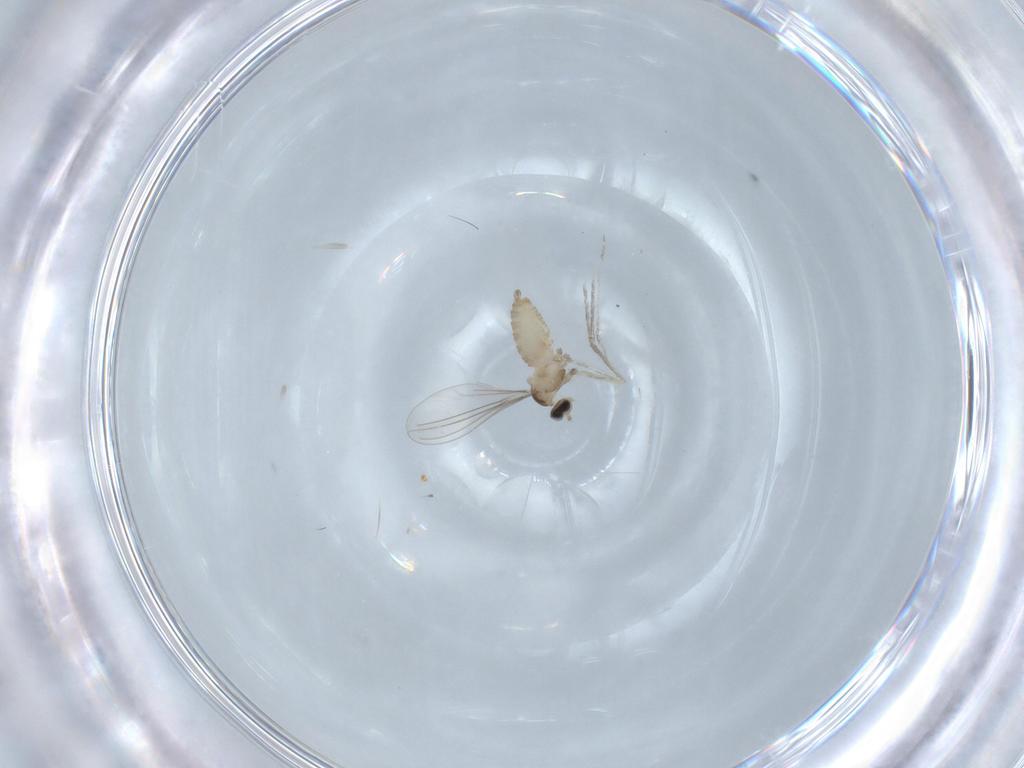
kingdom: Animalia
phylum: Arthropoda
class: Insecta
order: Diptera
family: Cecidomyiidae
